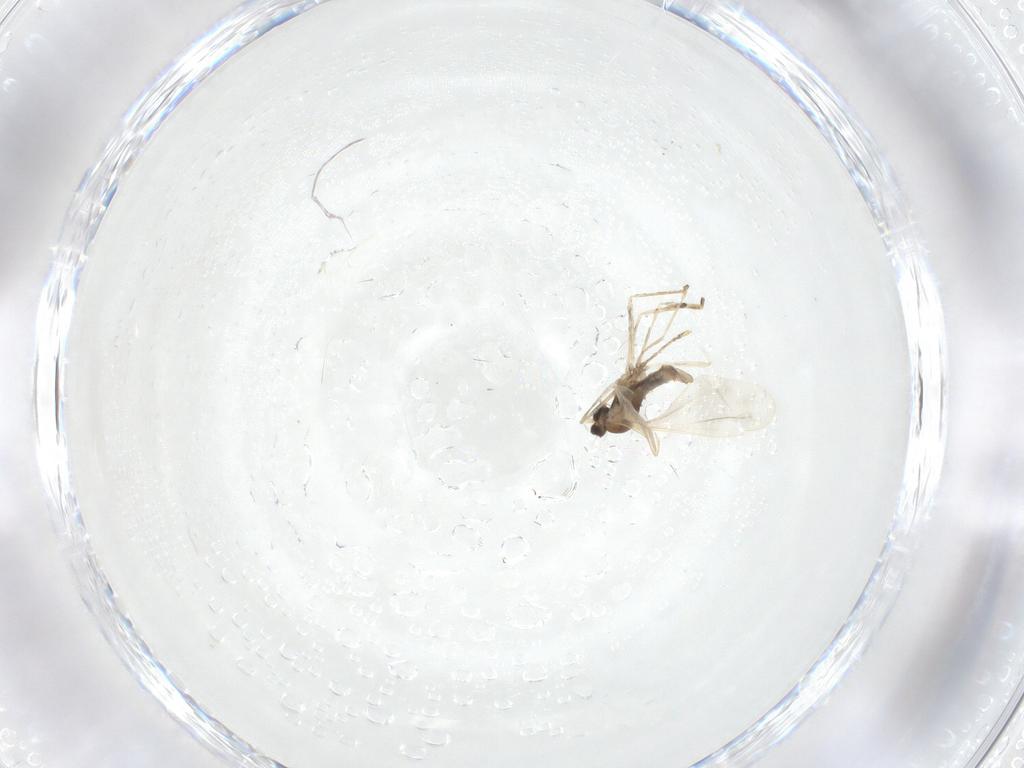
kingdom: Animalia
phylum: Arthropoda
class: Insecta
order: Diptera
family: Cecidomyiidae
